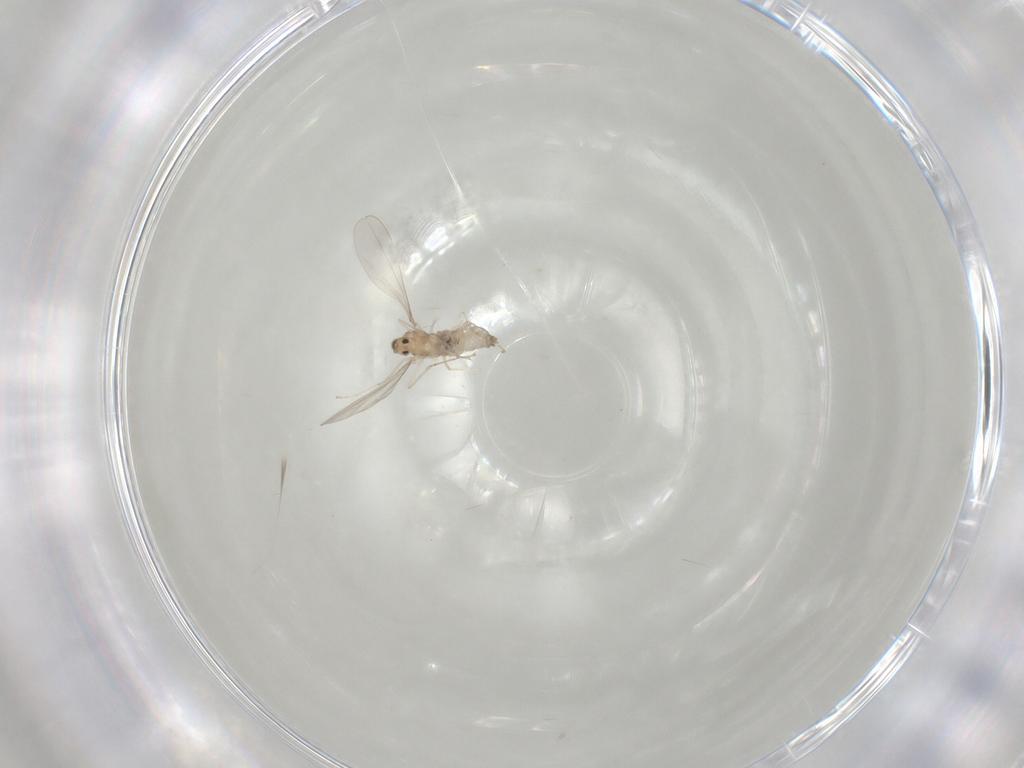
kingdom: Animalia
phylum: Arthropoda
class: Insecta
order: Diptera
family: Cecidomyiidae
